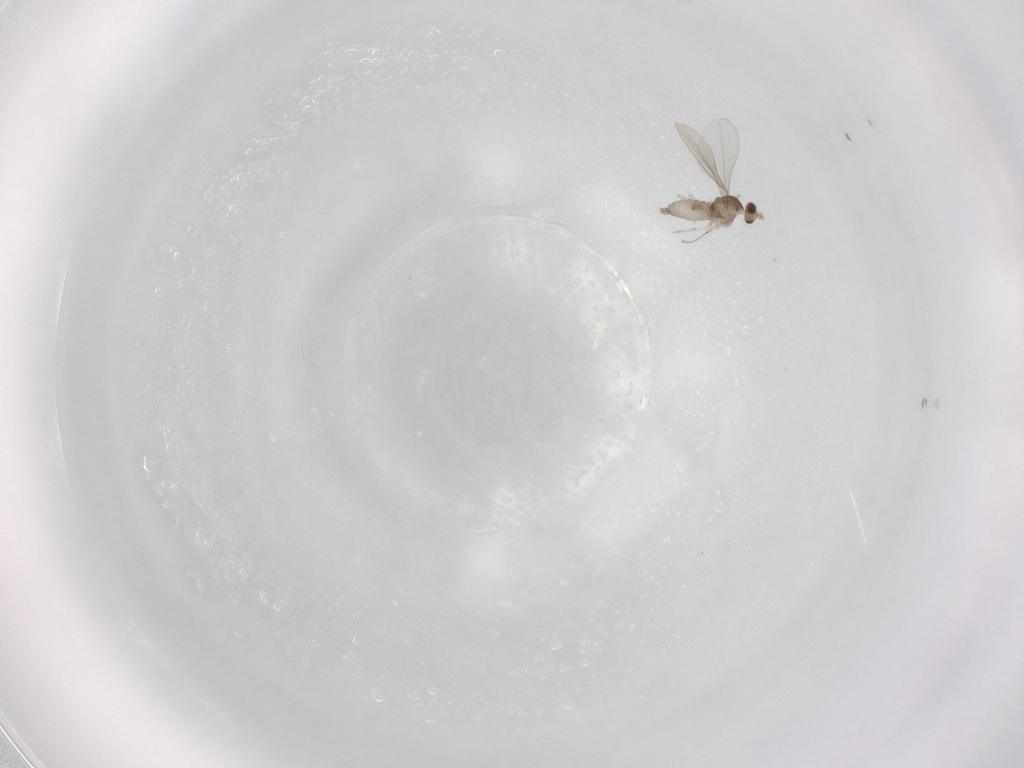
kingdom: Animalia
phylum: Arthropoda
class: Insecta
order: Diptera
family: Cecidomyiidae
